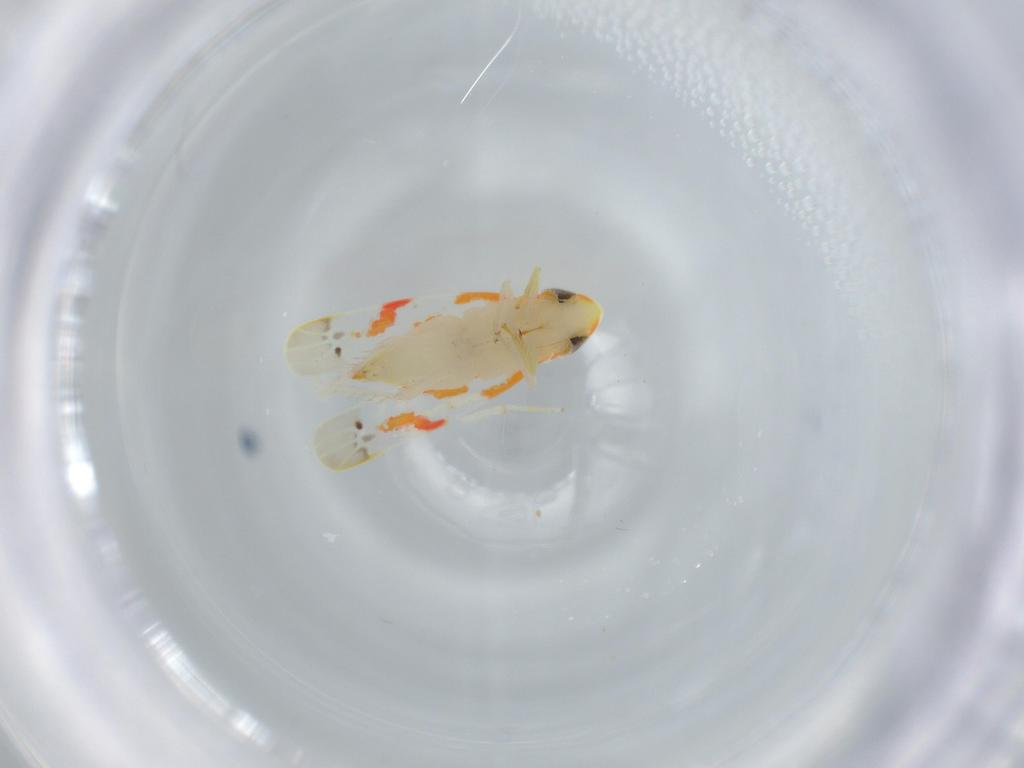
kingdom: Animalia
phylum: Arthropoda
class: Insecta
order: Hemiptera
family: Cicadellidae
